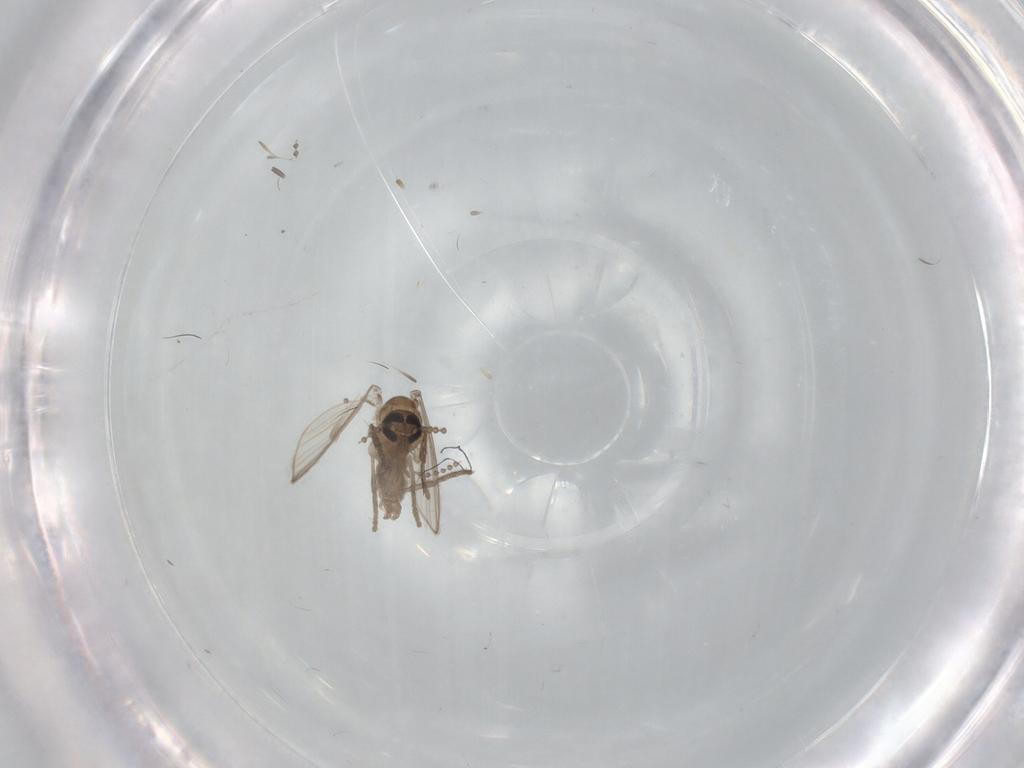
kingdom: Animalia
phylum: Arthropoda
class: Insecta
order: Diptera
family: Psychodidae
